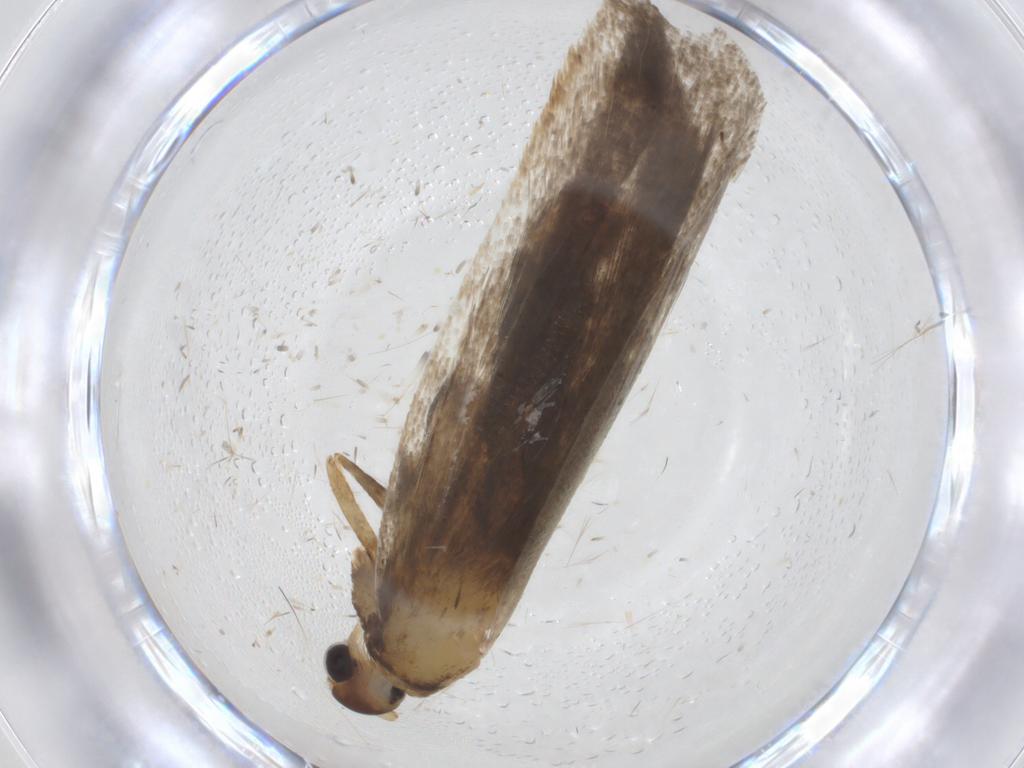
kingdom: Animalia
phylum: Arthropoda
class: Insecta
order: Lepidoptera
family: Lecithoceridae
